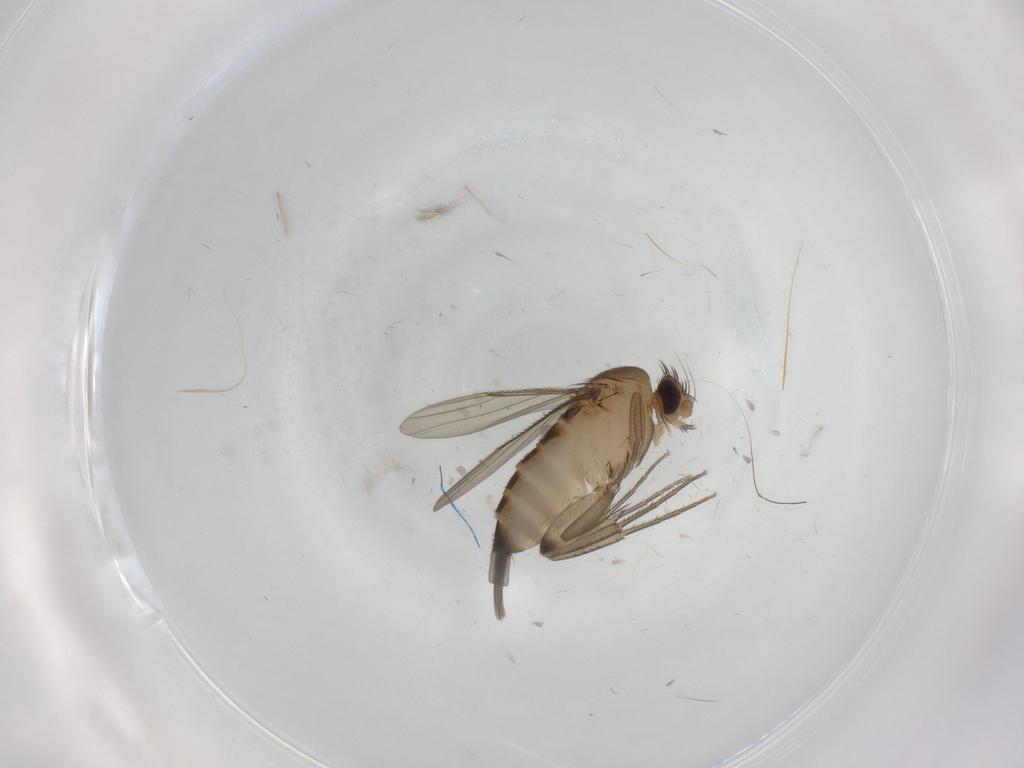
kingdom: Animalia
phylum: Arthropoda
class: Insecta
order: Diptera
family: Phoridae
